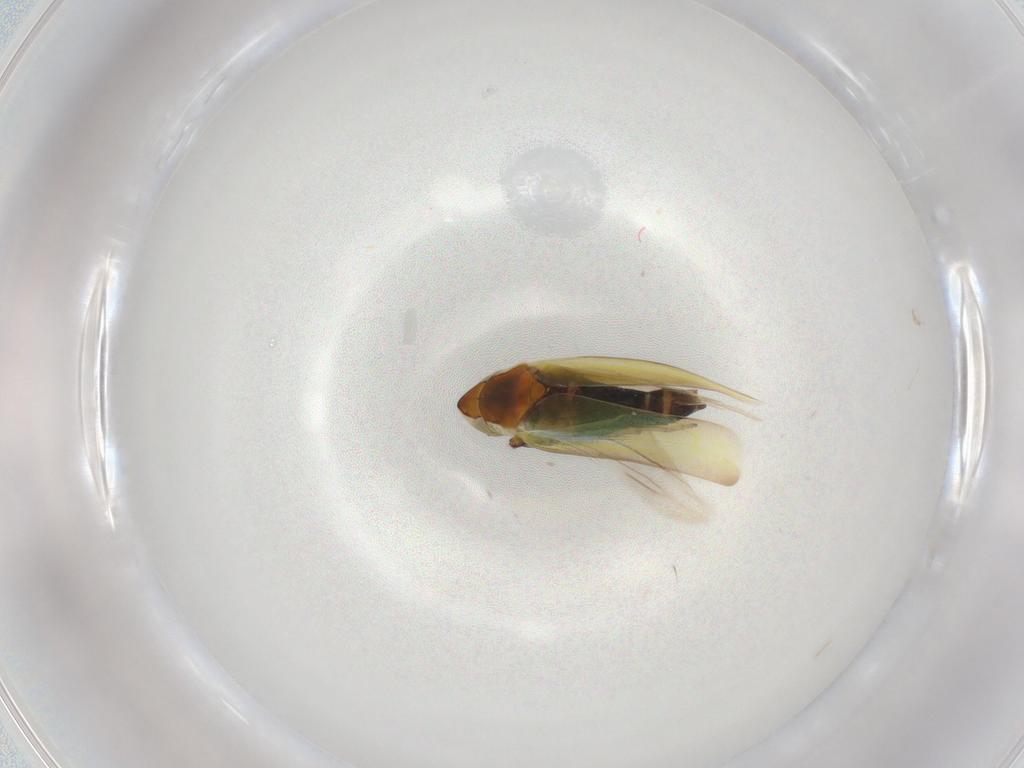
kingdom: Animalia
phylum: Arthropoda
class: Insecta
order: Hemiptera
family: Cicadellidae
